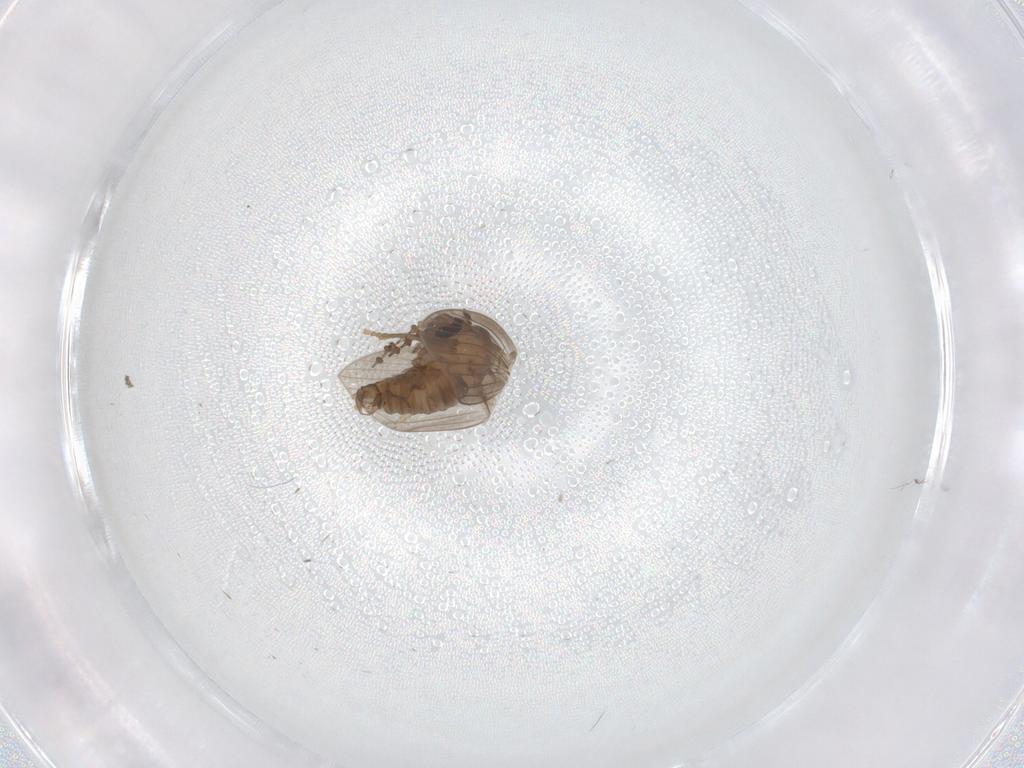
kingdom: Animalia
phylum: Arthropoda
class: Insecta
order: Diptera
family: Psychodidae
